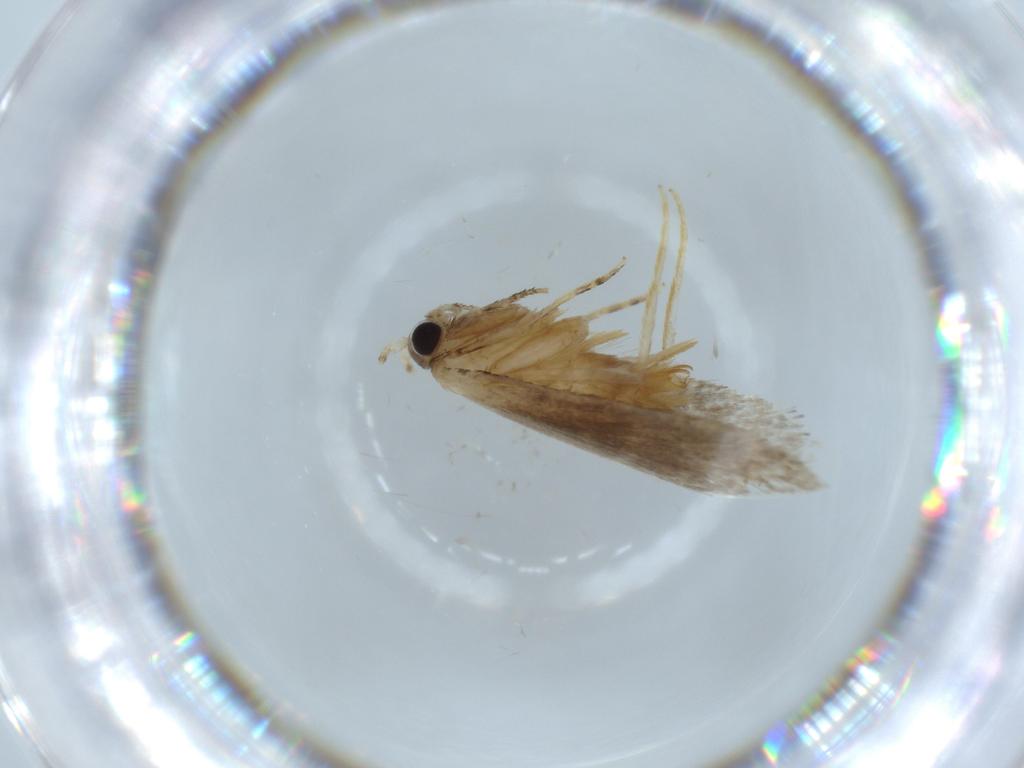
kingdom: Animalia
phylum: Arthropoda
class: Insecta
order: Lepidoptera
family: Tineidae
